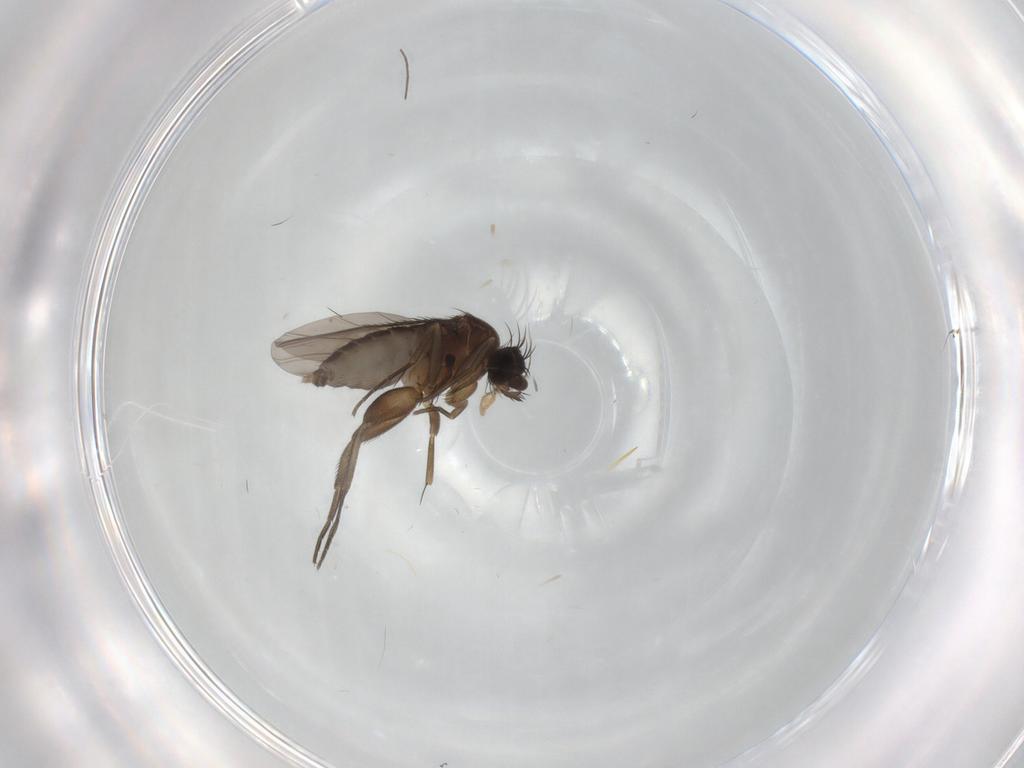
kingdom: Animalia
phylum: Arthropoda
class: Insecta
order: Diptera
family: Phoridae
